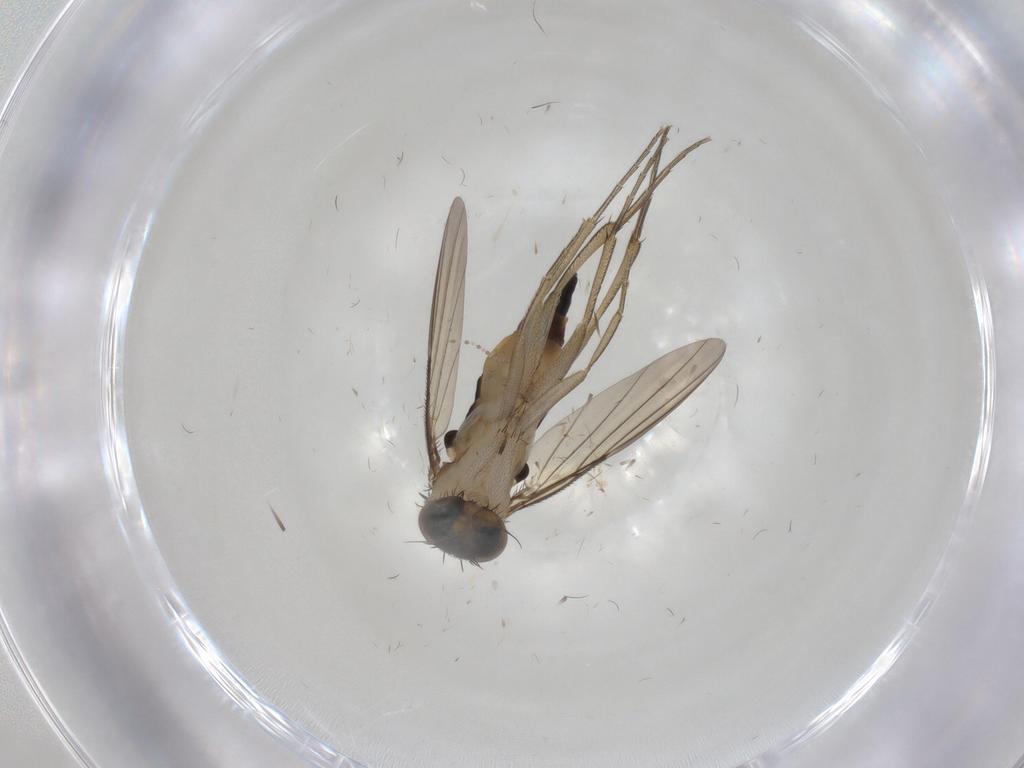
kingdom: Animalia
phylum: Arthropoda
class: Insecta
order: Diptera
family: Phoridae
